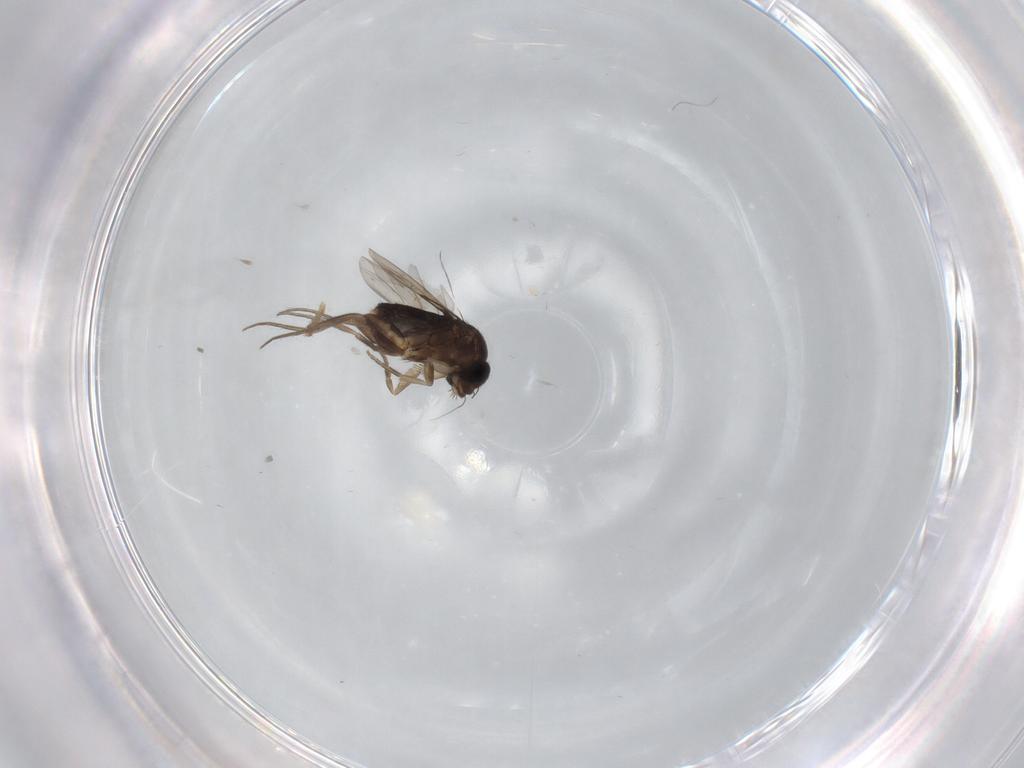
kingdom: Animalia
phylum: Arthropoda
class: Insecta
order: Diptera
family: Phoridae
